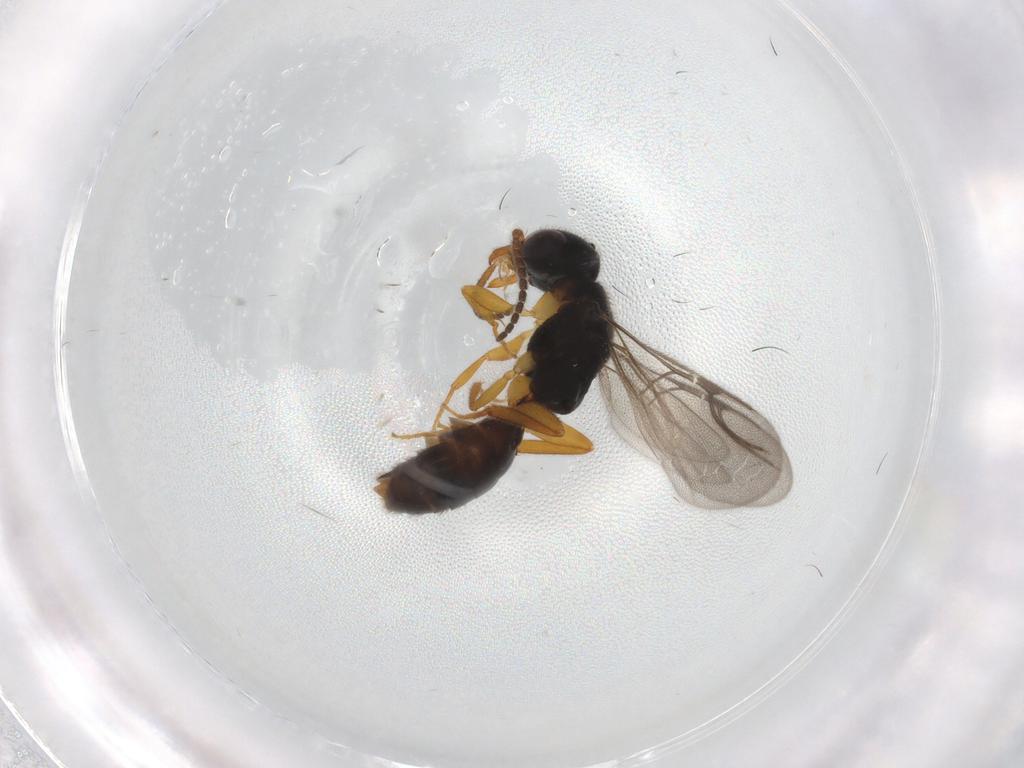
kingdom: Animalia
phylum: Arthropoda
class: Insecta
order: Hymenoptera
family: Bethylidae
